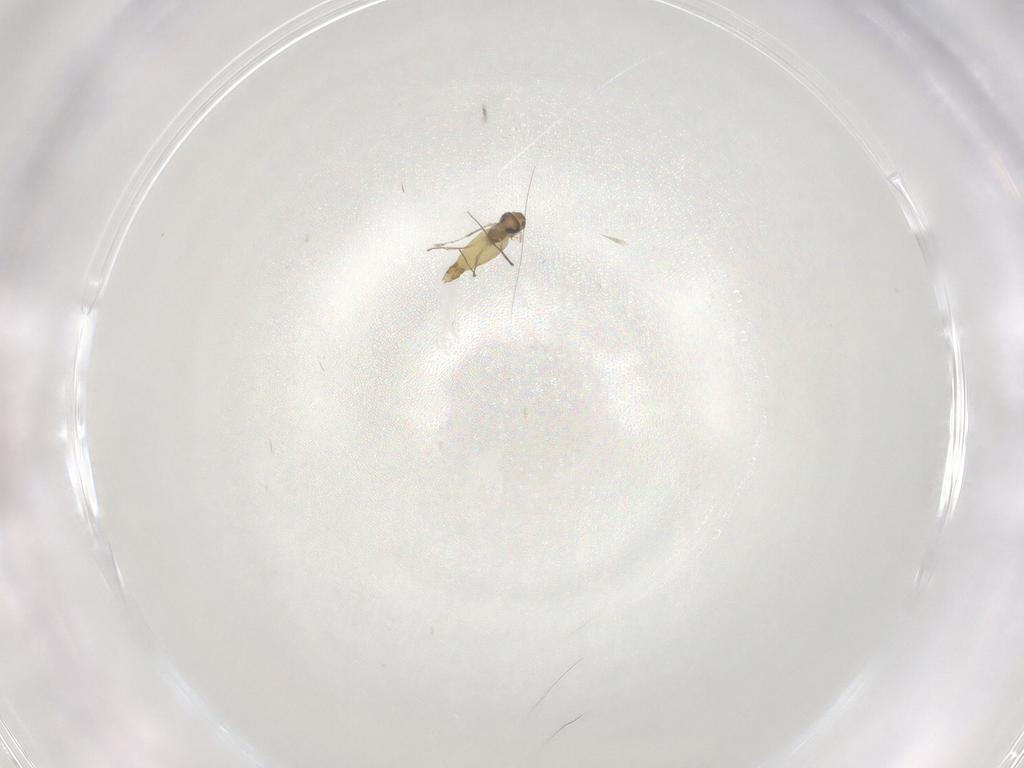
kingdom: Animalia
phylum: Arthropoda
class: Insecta
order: Diptera
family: Chironomidae
